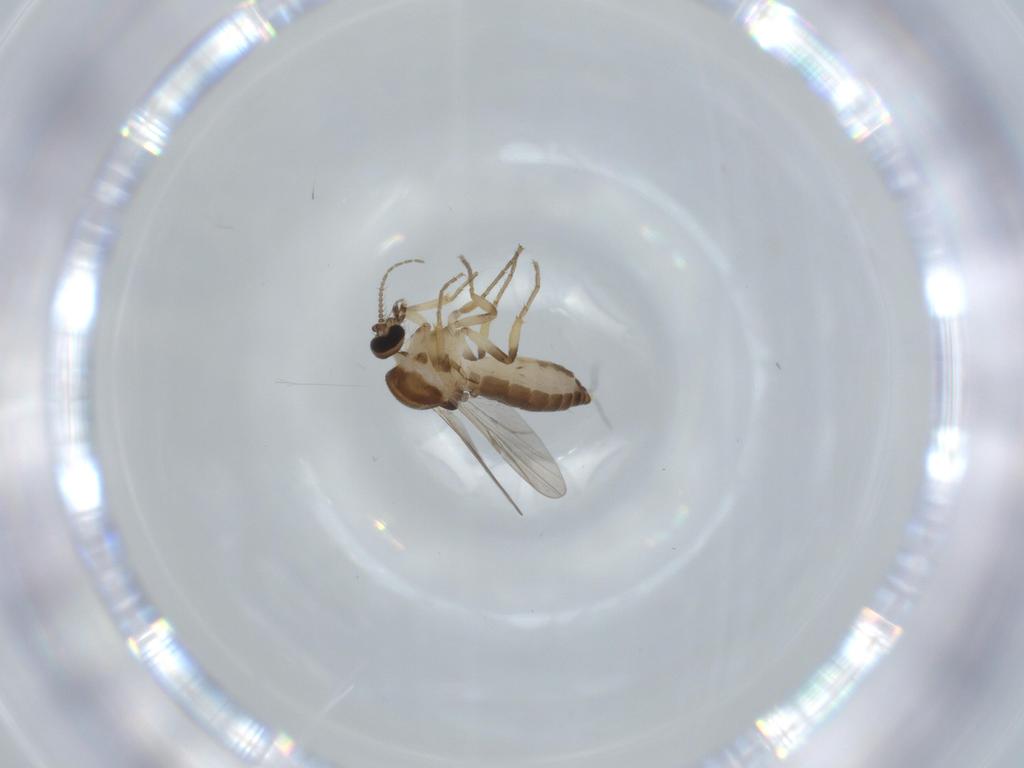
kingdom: Animalia
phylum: Arthropoda
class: Insecta
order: Diptera
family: Ceratopogonidae
